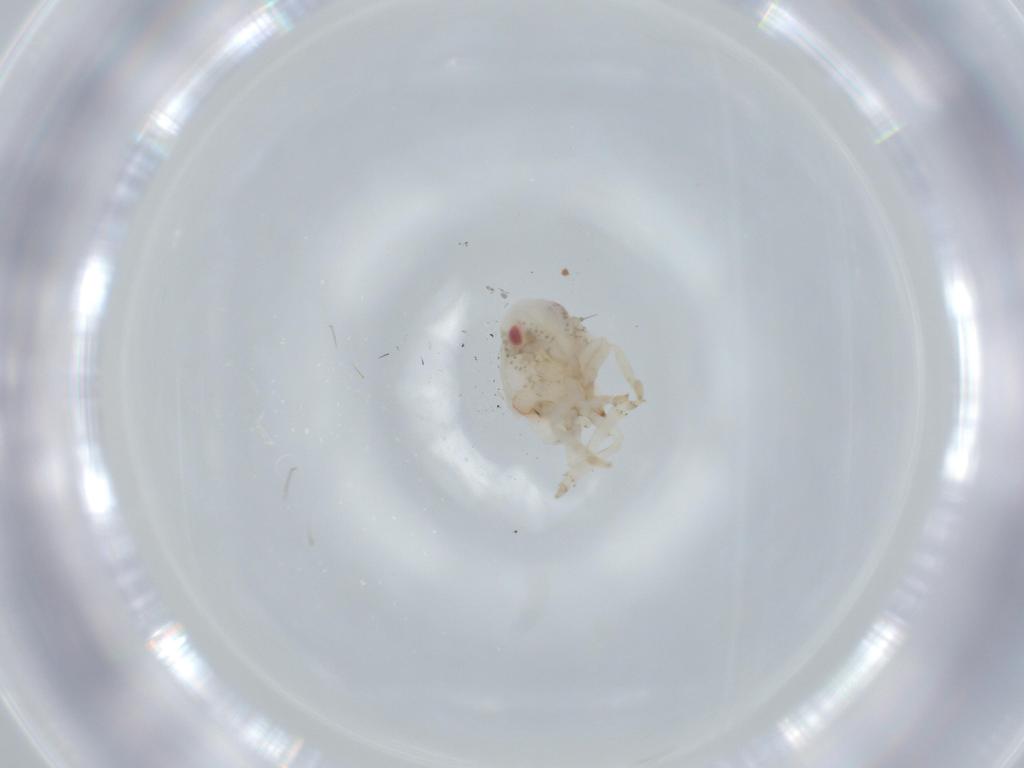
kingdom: Animalia
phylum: Arthropoda
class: Insecta
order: Hemiptera
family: Acanaloniidae
